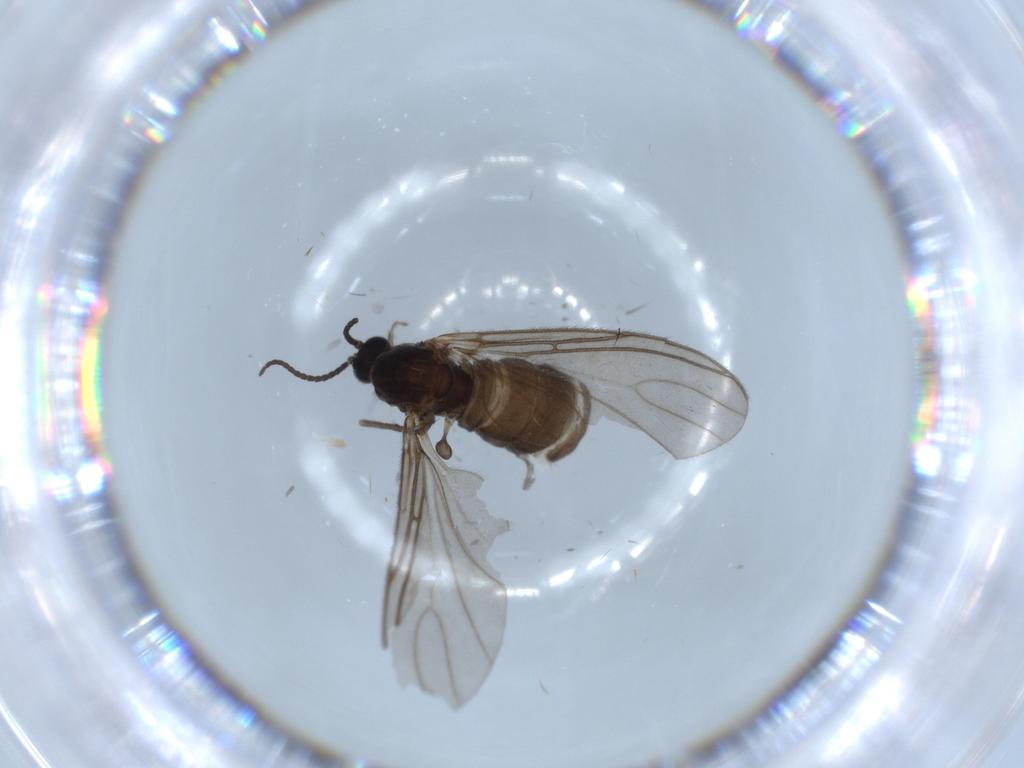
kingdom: Animalia
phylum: Arthropoda
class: Insecta
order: Diptera
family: Sciaridae
